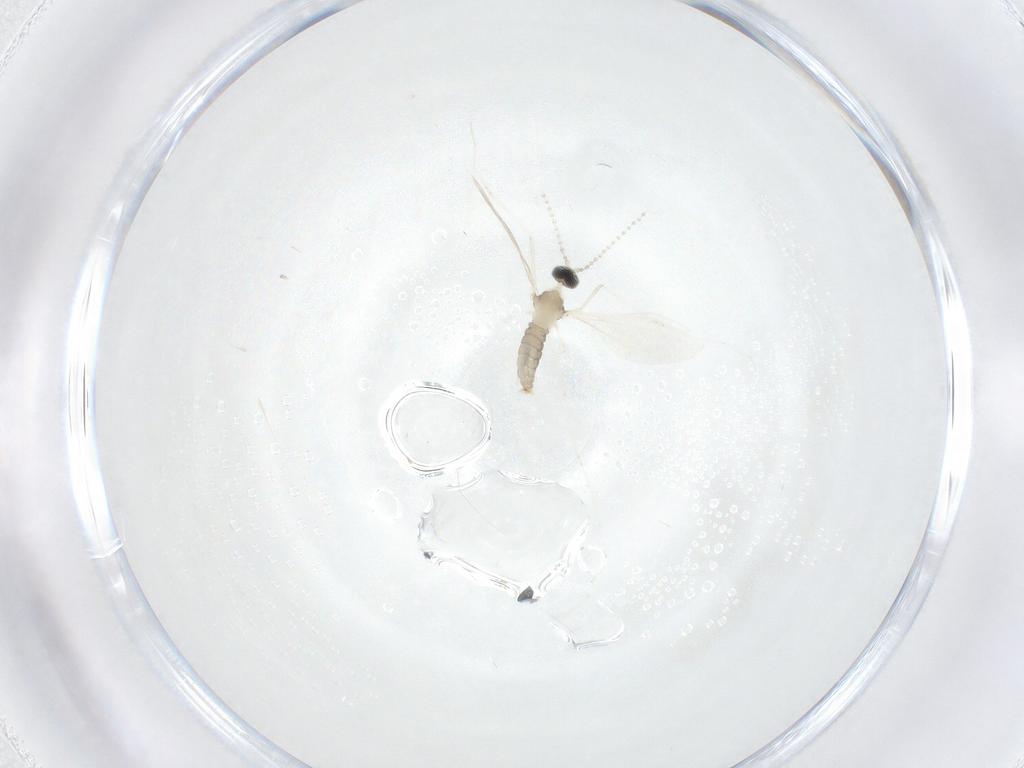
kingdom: Animalia
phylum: Arthropoda
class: Insecta
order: Diptera
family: Cecidomyiidae
